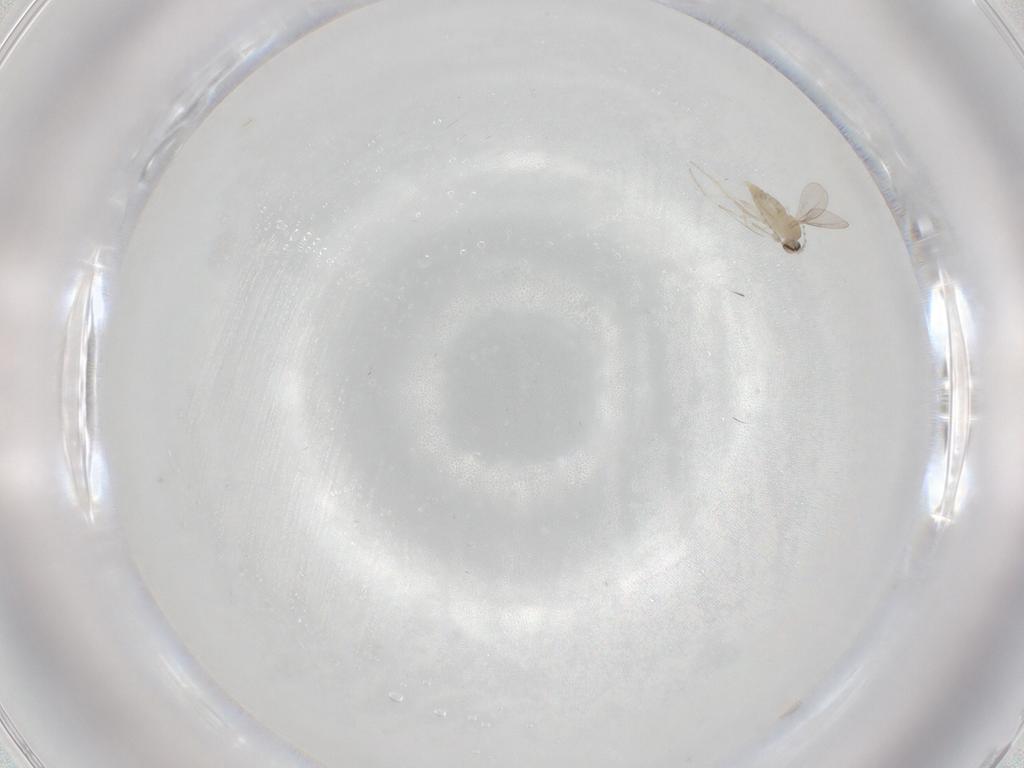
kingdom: Animalia
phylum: Arthropoda
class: Insecta
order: Diptera
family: Cecidomyiidae
